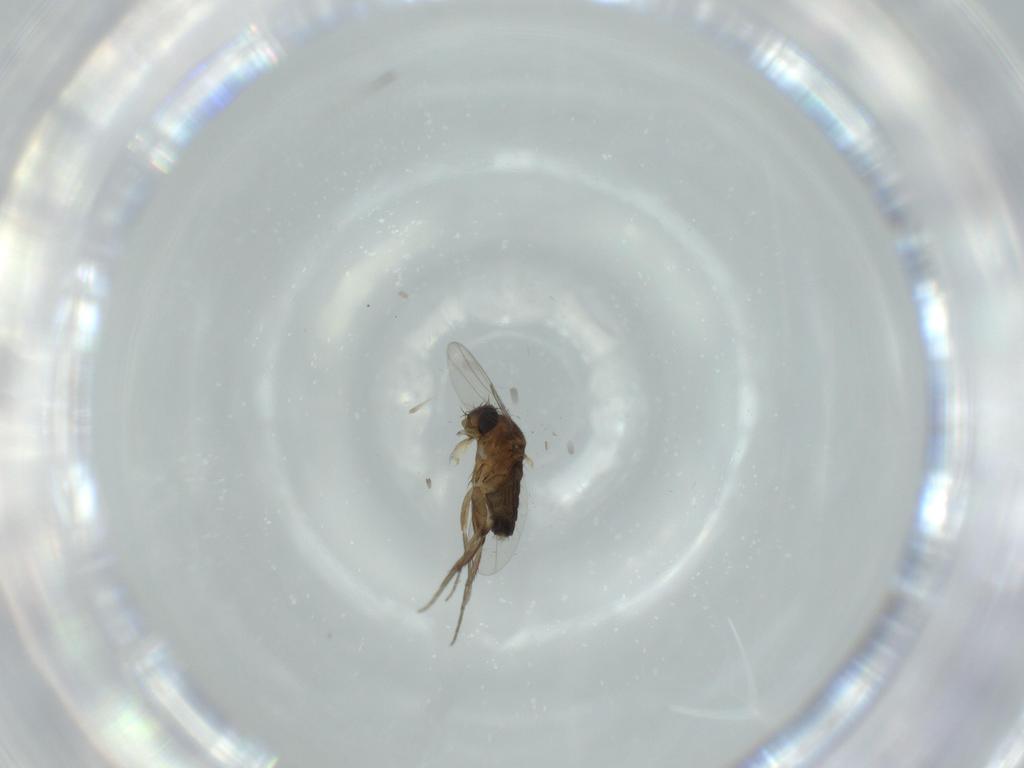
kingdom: Animalia
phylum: Arthropoda
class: Insecta
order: Diptera
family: Phoridae
